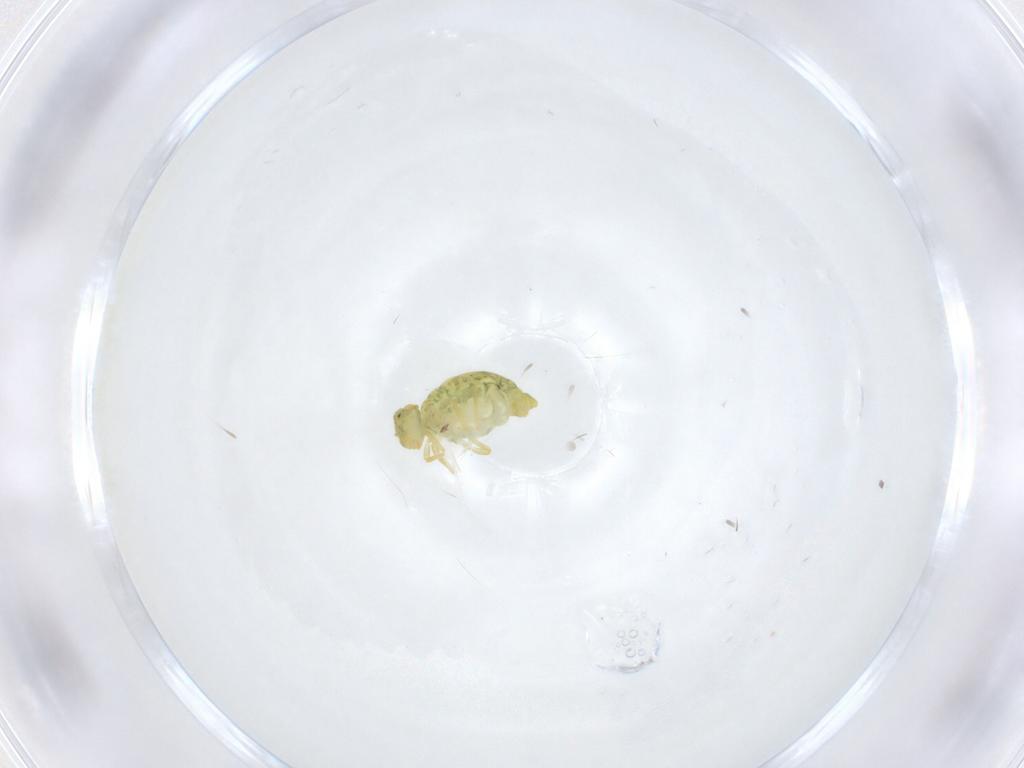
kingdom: Animalia
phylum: Arthropoda
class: Collembola
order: Symphypleona
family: Katiannidae
